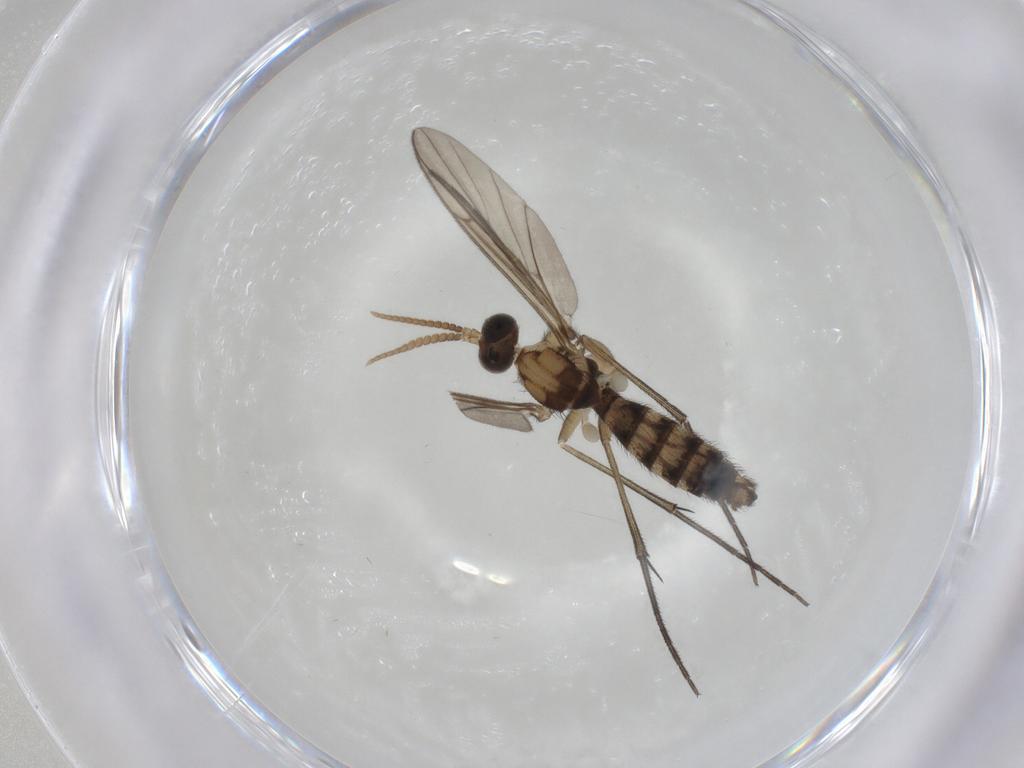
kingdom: Animalia
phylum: Arthropoda
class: Insecta
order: Diptera
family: Keroplatidae
